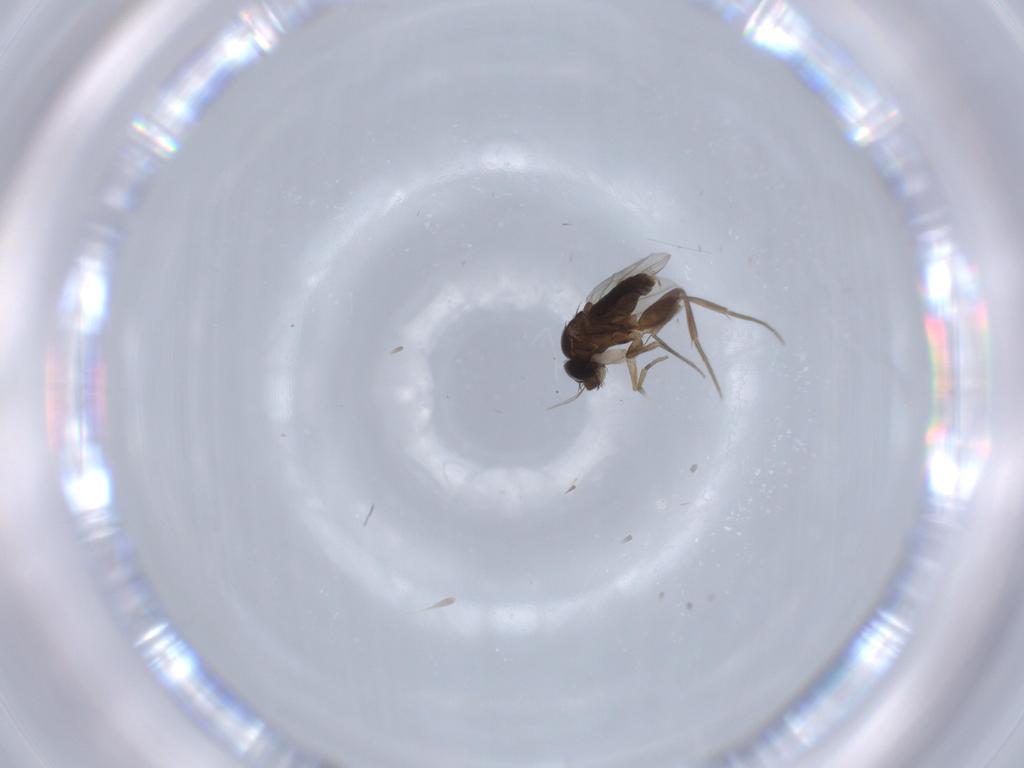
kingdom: Animalia
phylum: Arthropoda
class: Insecta
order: Diptera
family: Phoridae
